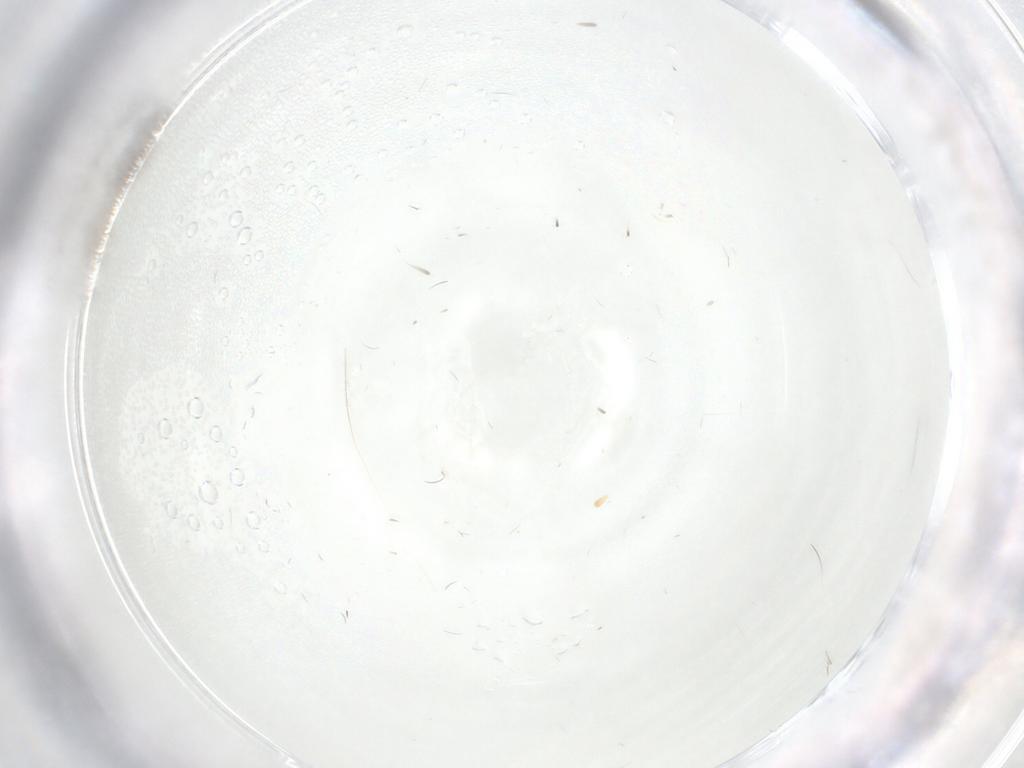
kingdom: Animalia
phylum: Arthropoda
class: Insecta
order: Hemiptera
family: Ceratocombidae
